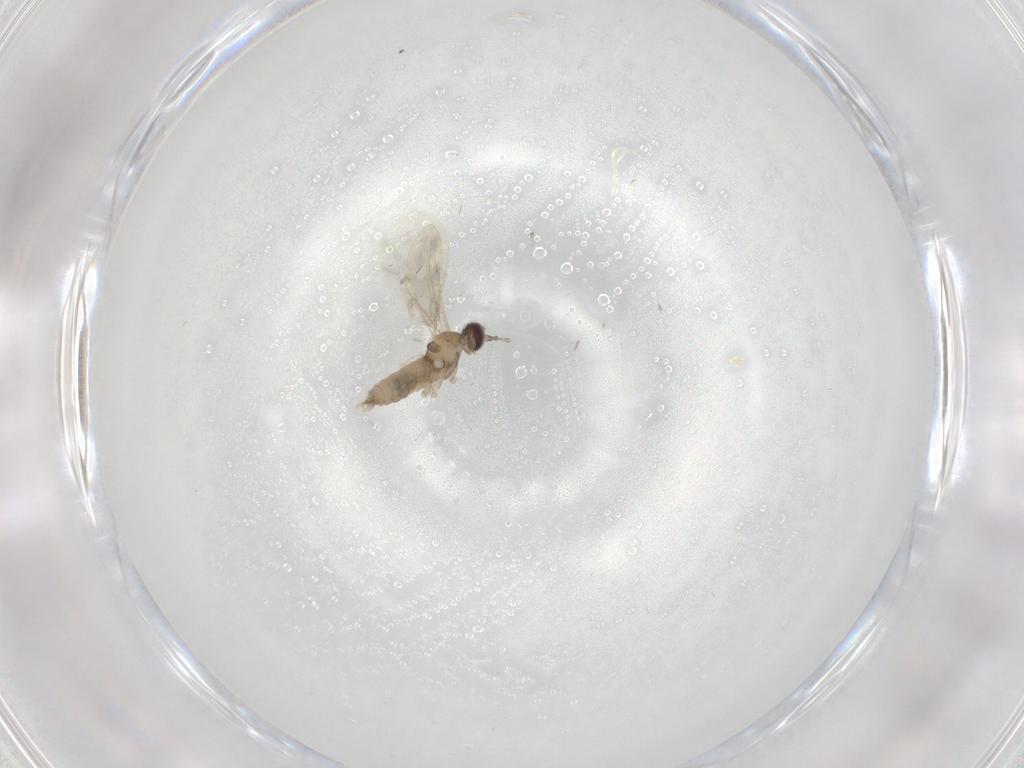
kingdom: Animalia
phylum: Arthropoda
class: Insecta
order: Diptera
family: Cecidomyiidae
